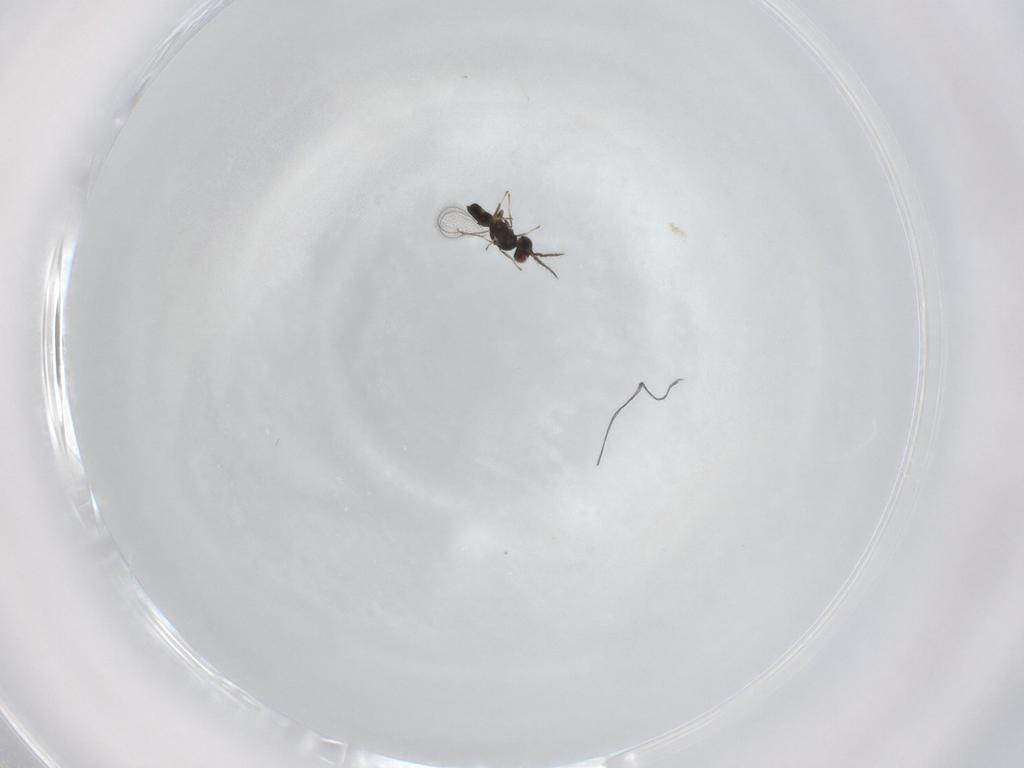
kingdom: Animalia
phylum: Arthropoda
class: Insecta
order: Hymenoptera
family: Eulophidae
